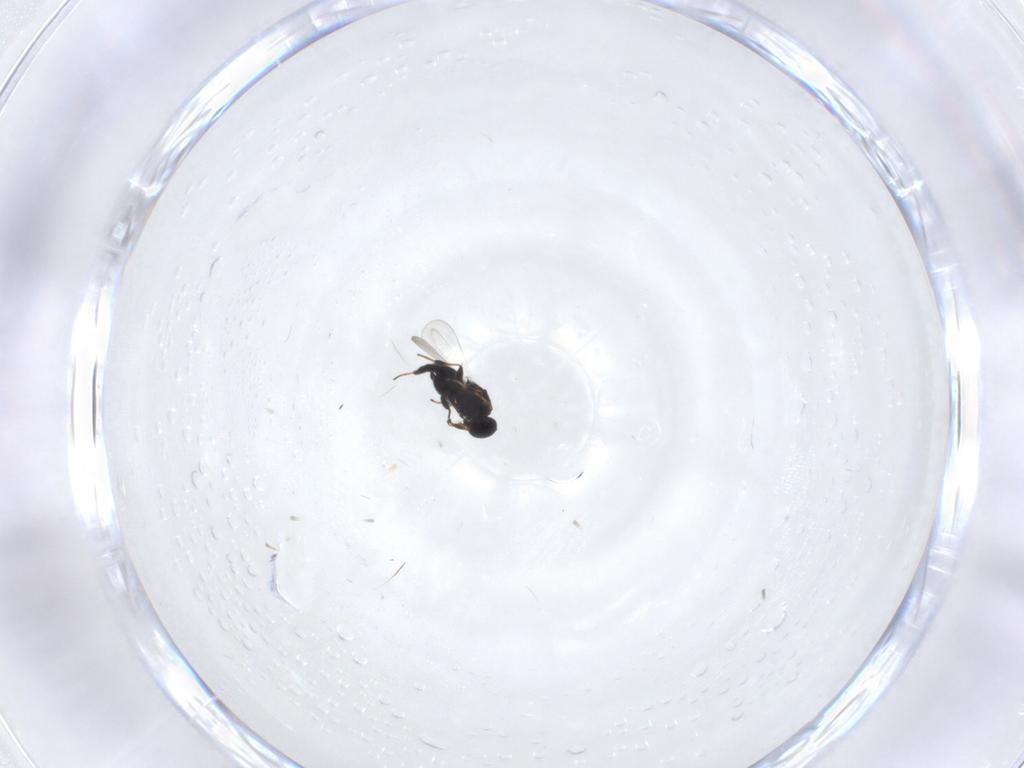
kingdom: Animalia
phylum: Arthropoda
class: Insecta
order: Hymenoptera
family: Platygastridae
